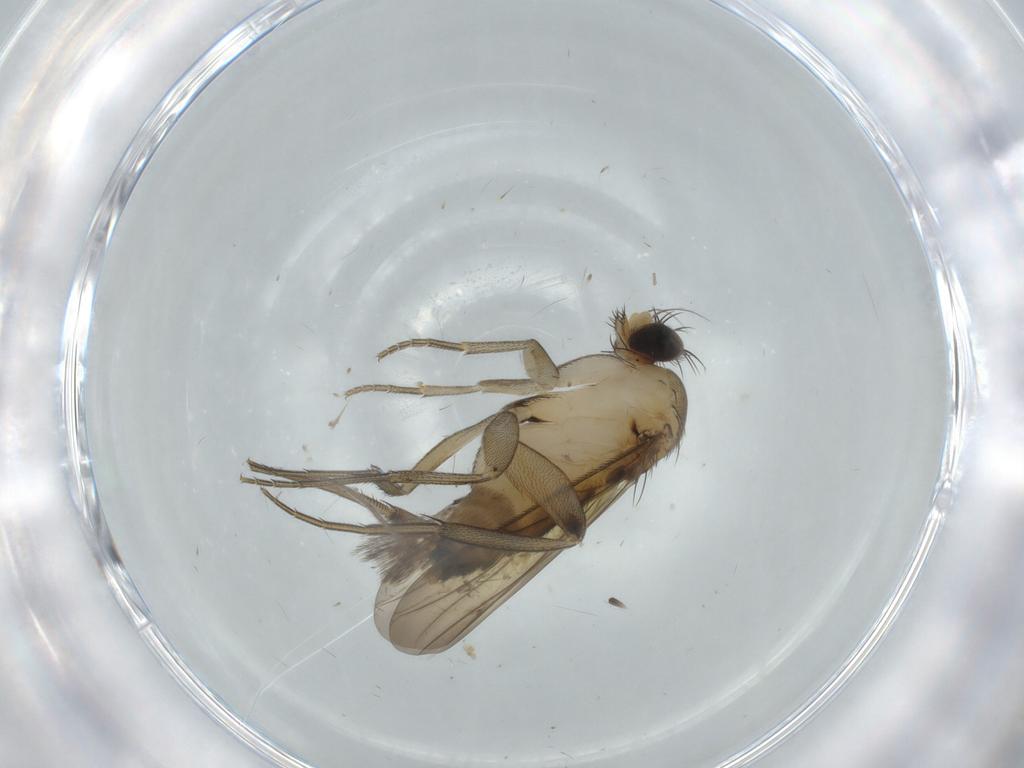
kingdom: Animalia
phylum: Arthropoda
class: Insecta
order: Diptera
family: Phoridae
